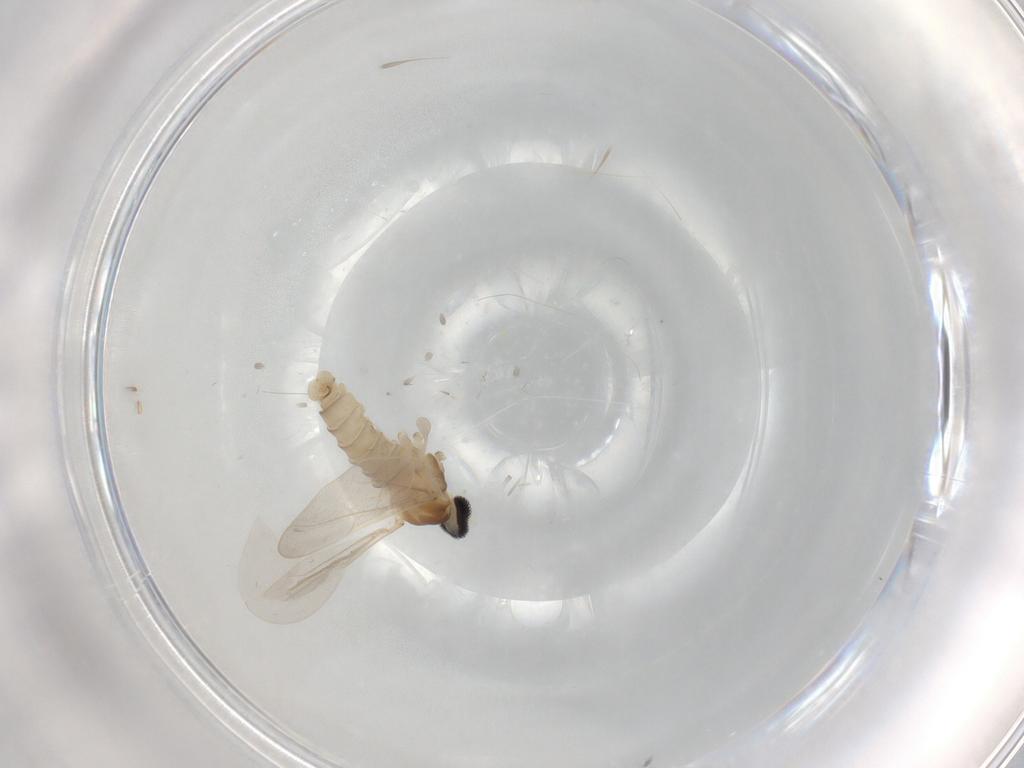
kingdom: Animalia
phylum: Arthropoda
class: Insecta
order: Diptera
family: Cecidomyiidae
